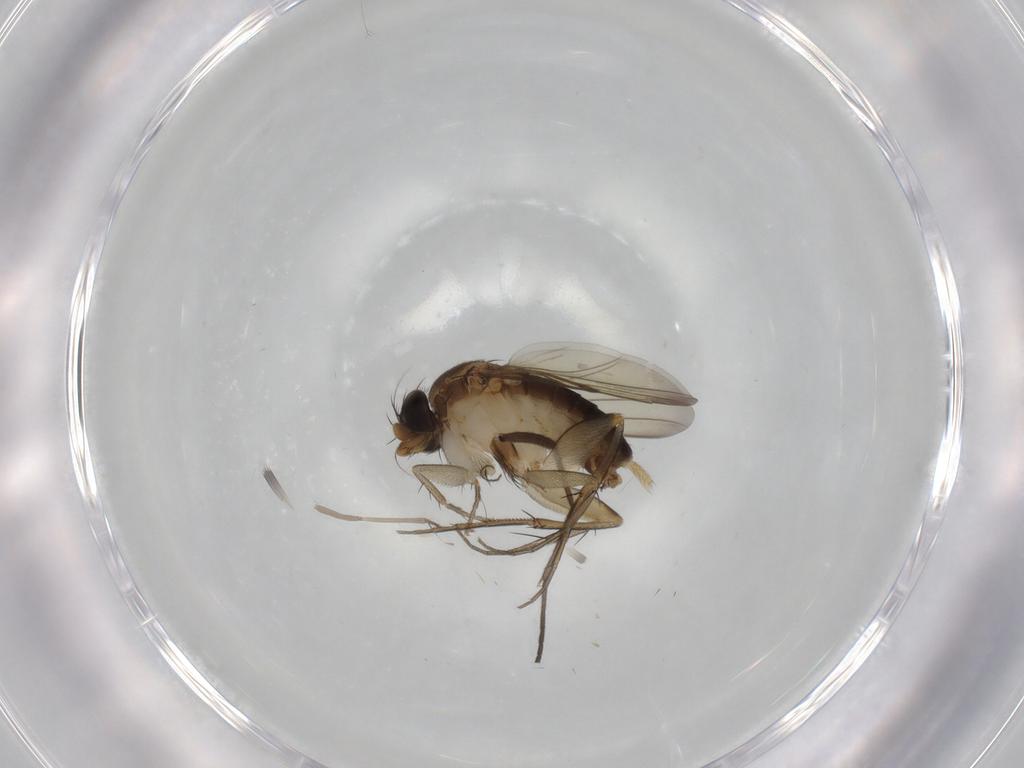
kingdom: Animalia
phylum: Arthropoda
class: Insecta
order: Diptera
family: Phoridae
